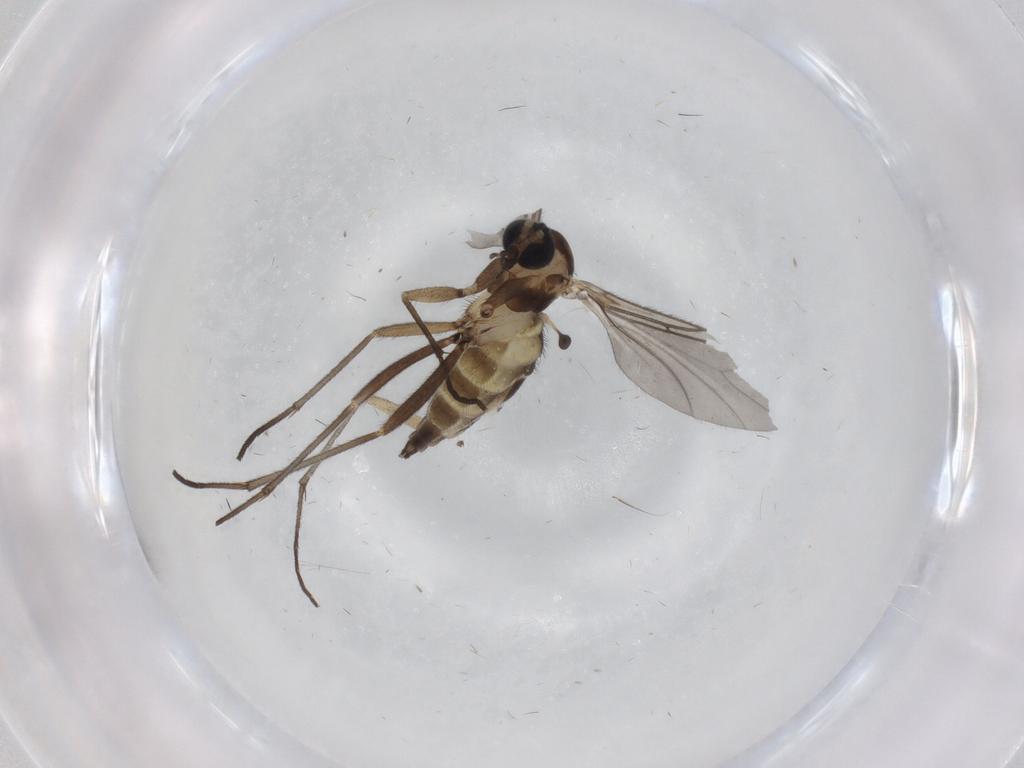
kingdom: Animalia
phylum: Arthropoda
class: Insecta
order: Diptera
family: Sciaridae
